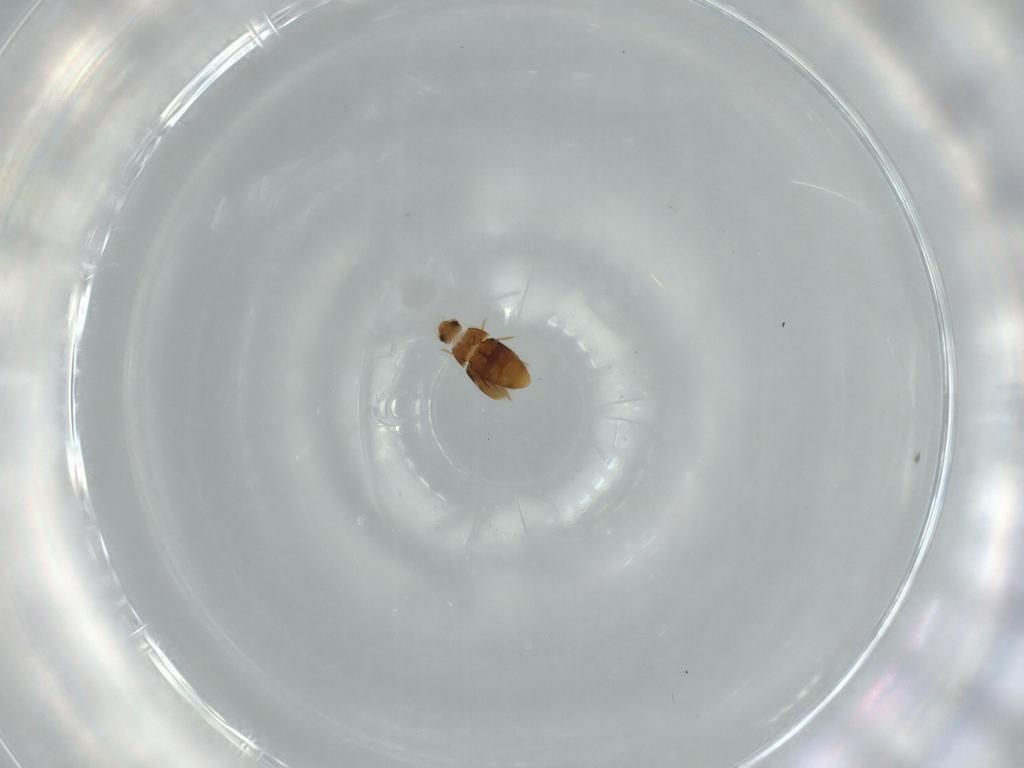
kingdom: Animalia
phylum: Arthropoda
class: Insecta
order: Coleoptera
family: Ptiliidae
